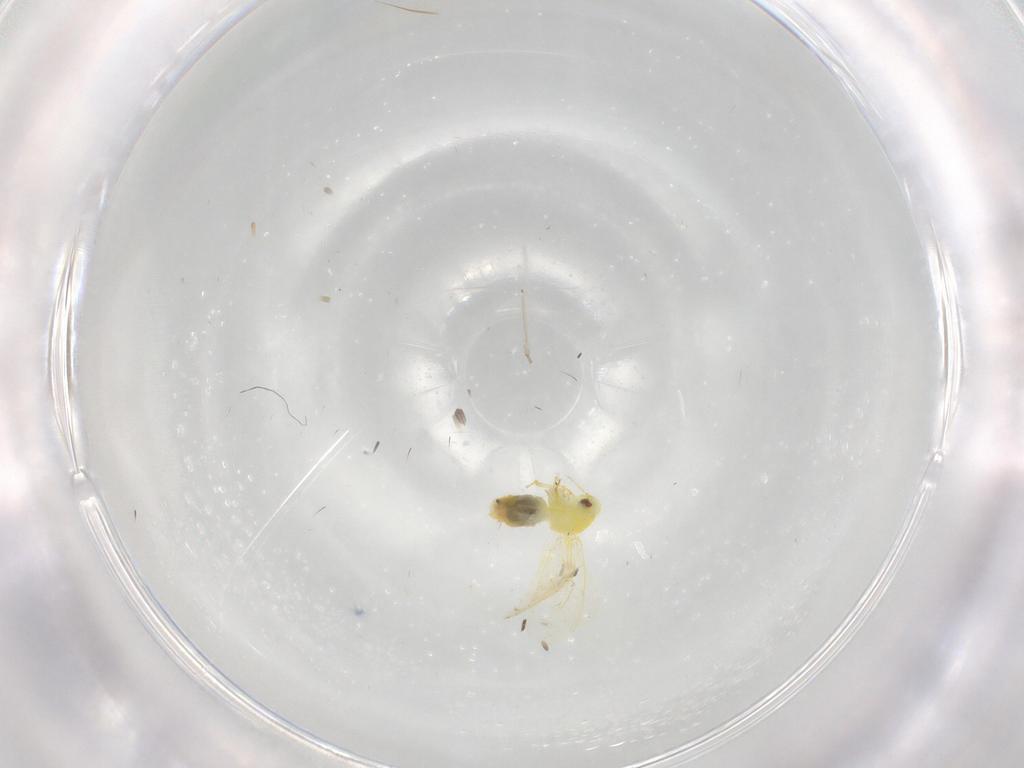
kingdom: Animalia
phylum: Arthropoda
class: Insecta
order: Hemiptera
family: Aleyrodidae
